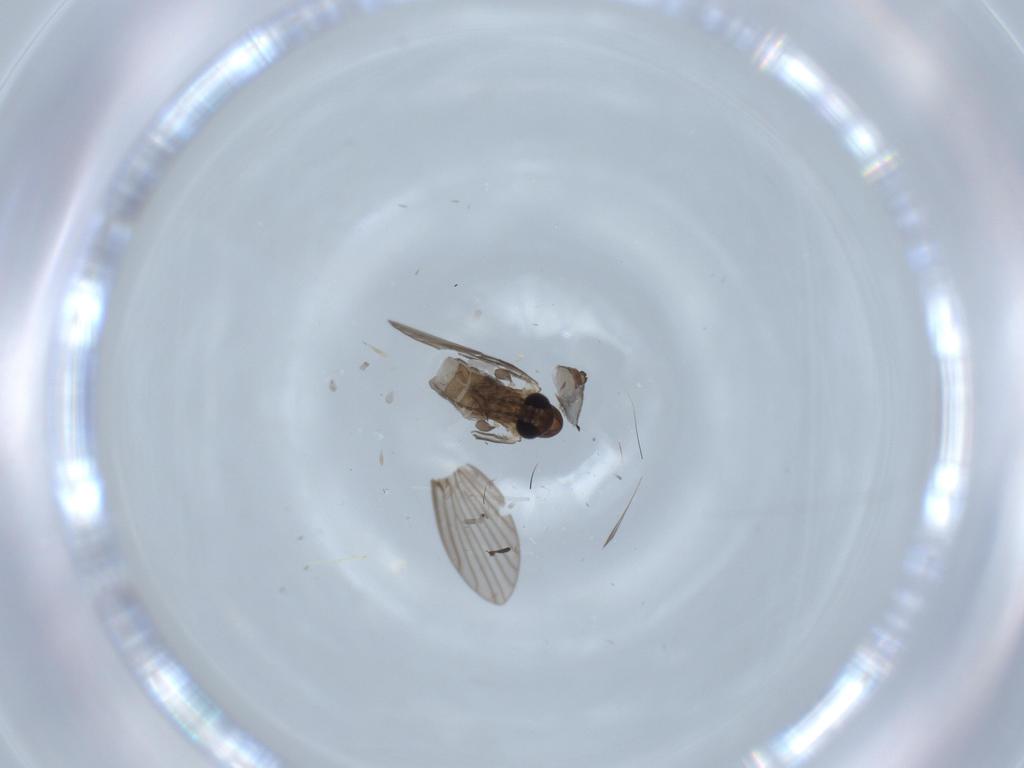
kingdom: Animalia
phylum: Arthropoda
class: Insecta
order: Diptera
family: Psychodidae
